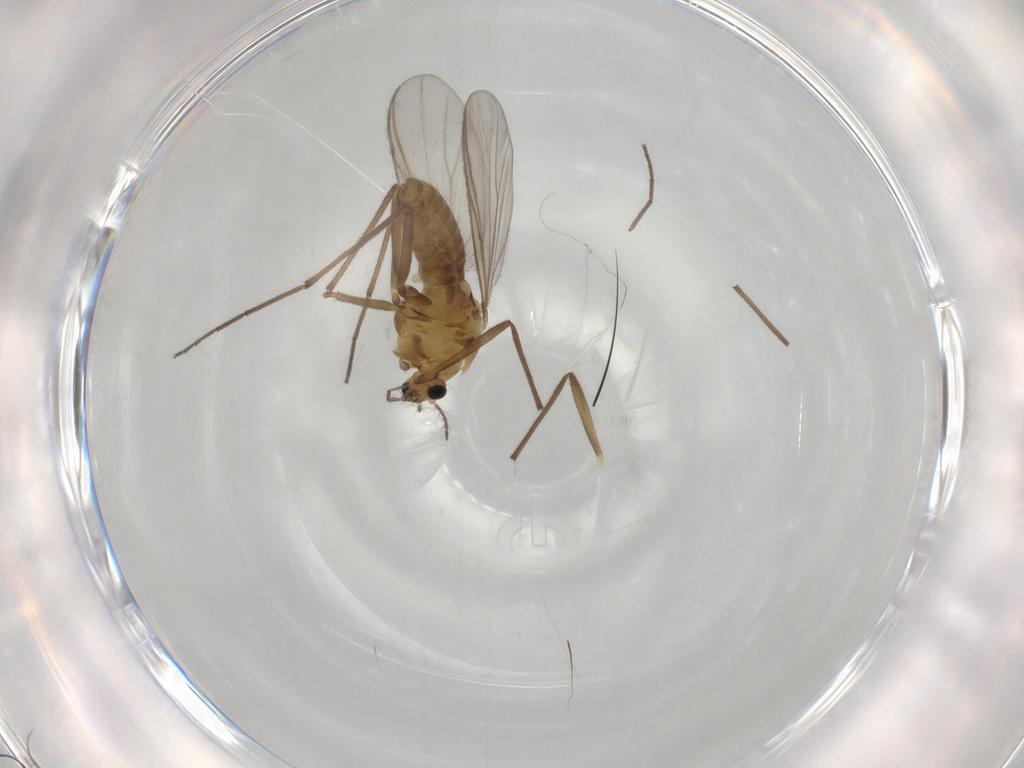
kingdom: Animalia
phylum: Arthropoda
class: Insecta
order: Diptera
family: Chironomidae
